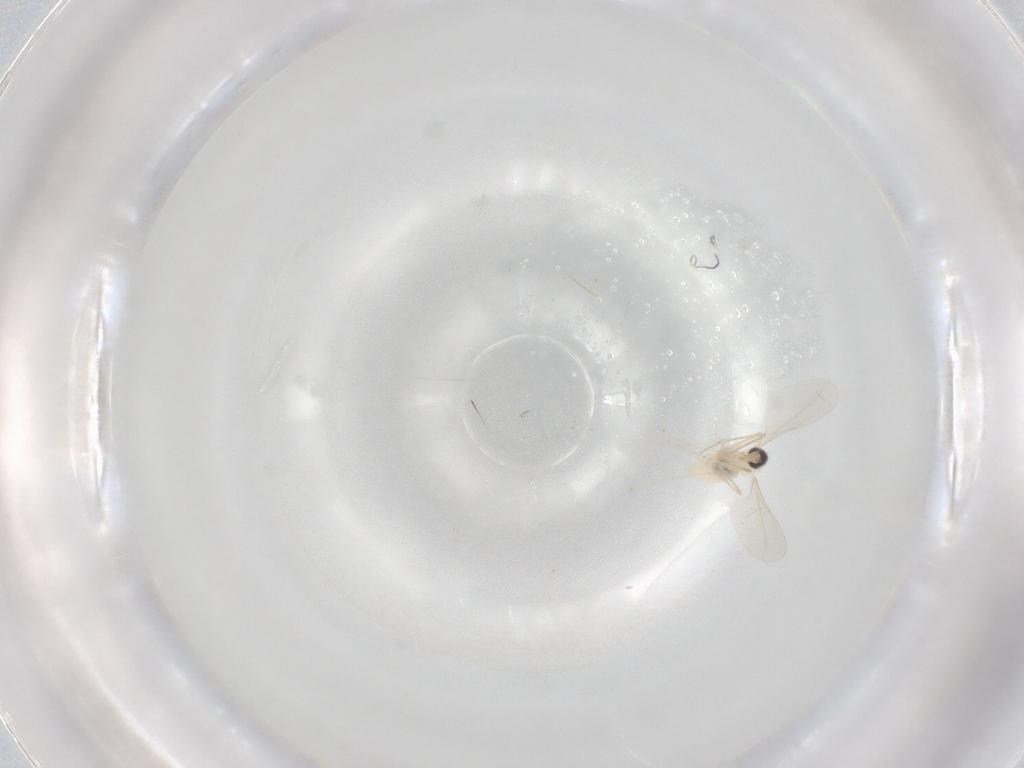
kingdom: Animalia
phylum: Arthropoda
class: Insecta
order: Diptera
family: Cecidomyiidae
